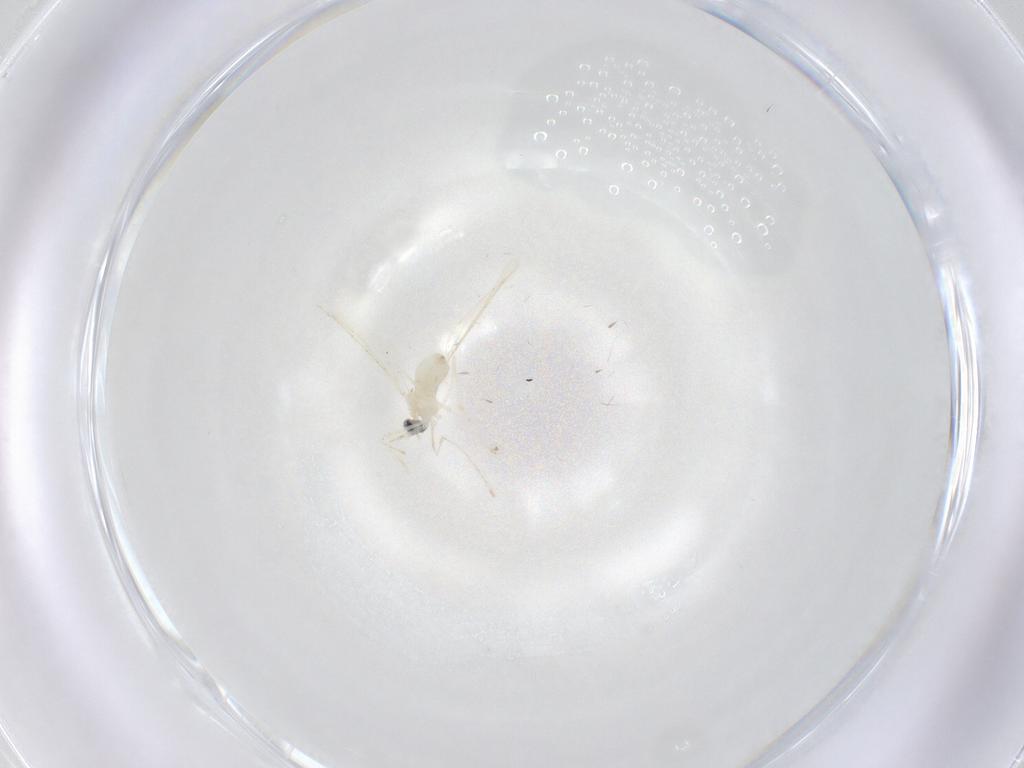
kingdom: Animalia
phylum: Arthropoda
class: Insecta
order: Diptera
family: Cecidomyiidae
